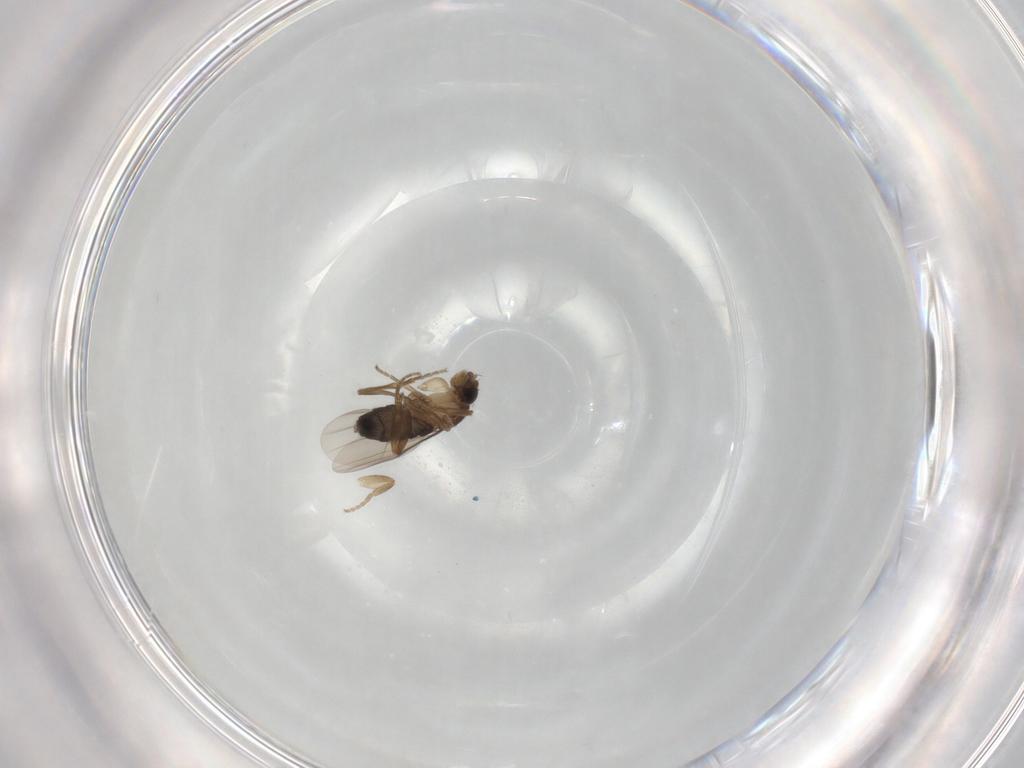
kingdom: Animalia
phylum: Arthropoda
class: Insecta
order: Diptera
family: Phoridae
